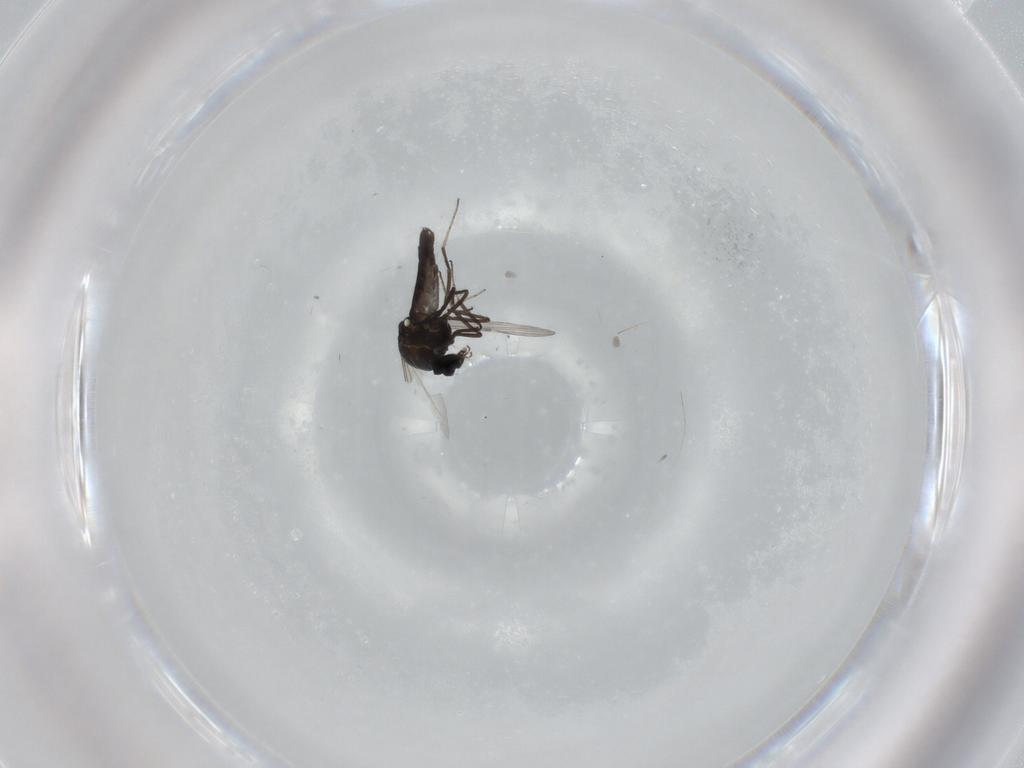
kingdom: Animalia
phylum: Arthropoda
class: Insecta
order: Diptera
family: Ceratopogonidae
